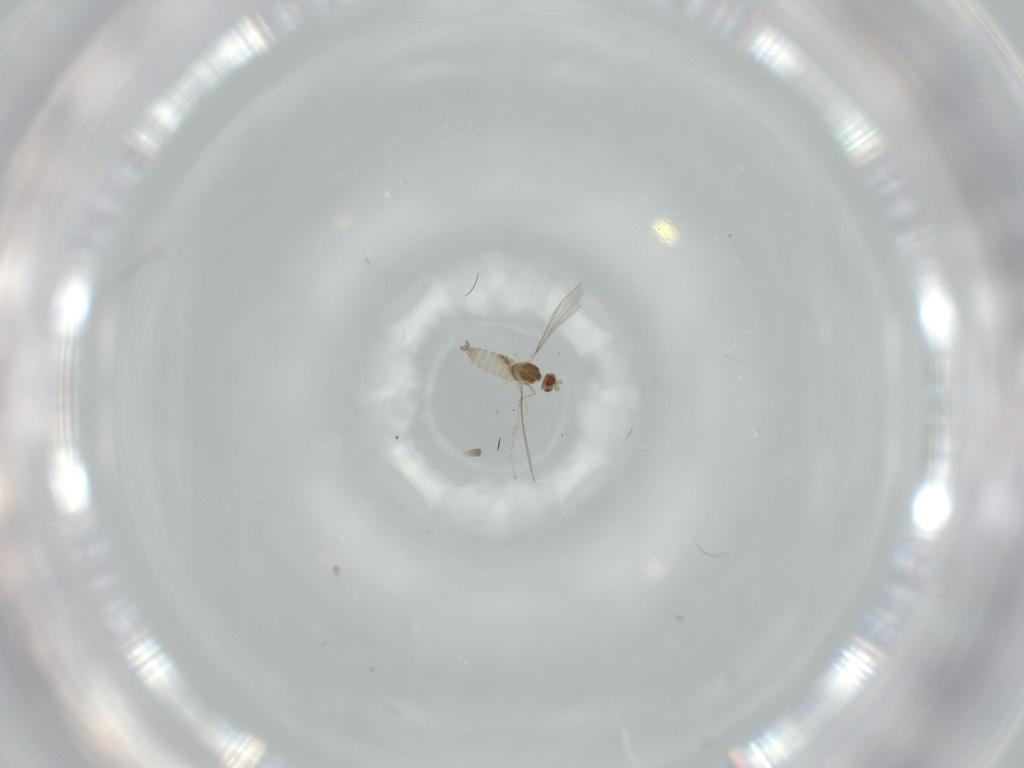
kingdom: Animalia
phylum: Arthropoda
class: Insecta
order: Diptera
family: Cecidomyiidae
